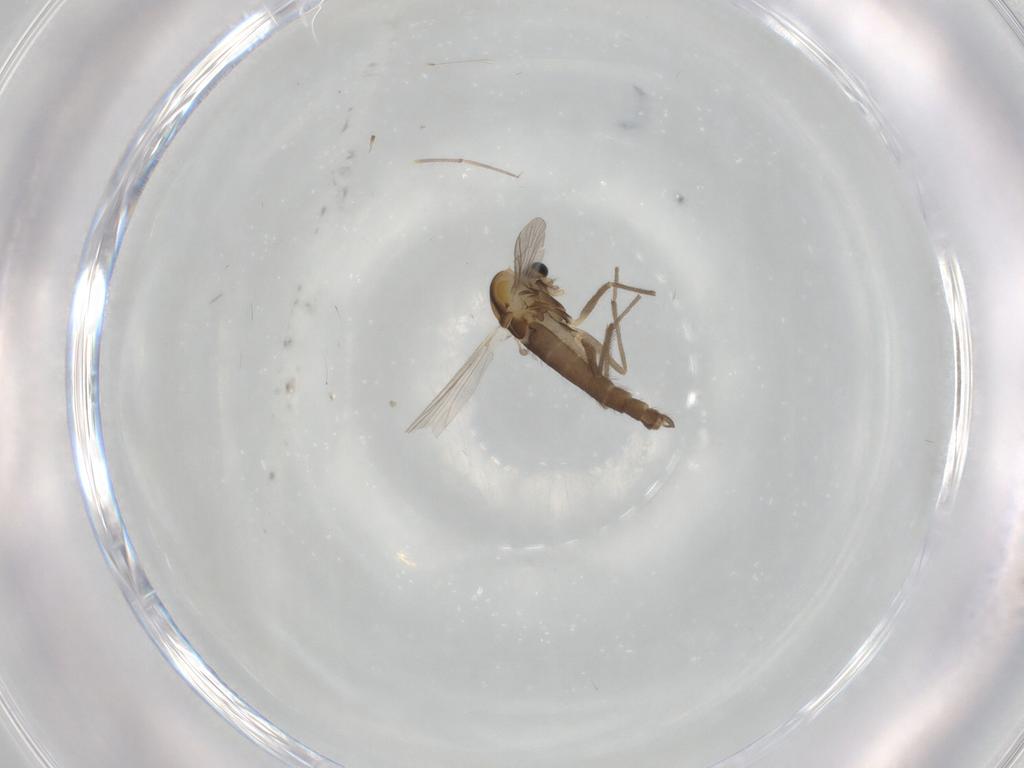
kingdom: Animalia
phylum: Arthropoda
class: Insecta
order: Diptera
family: Chironomidae
